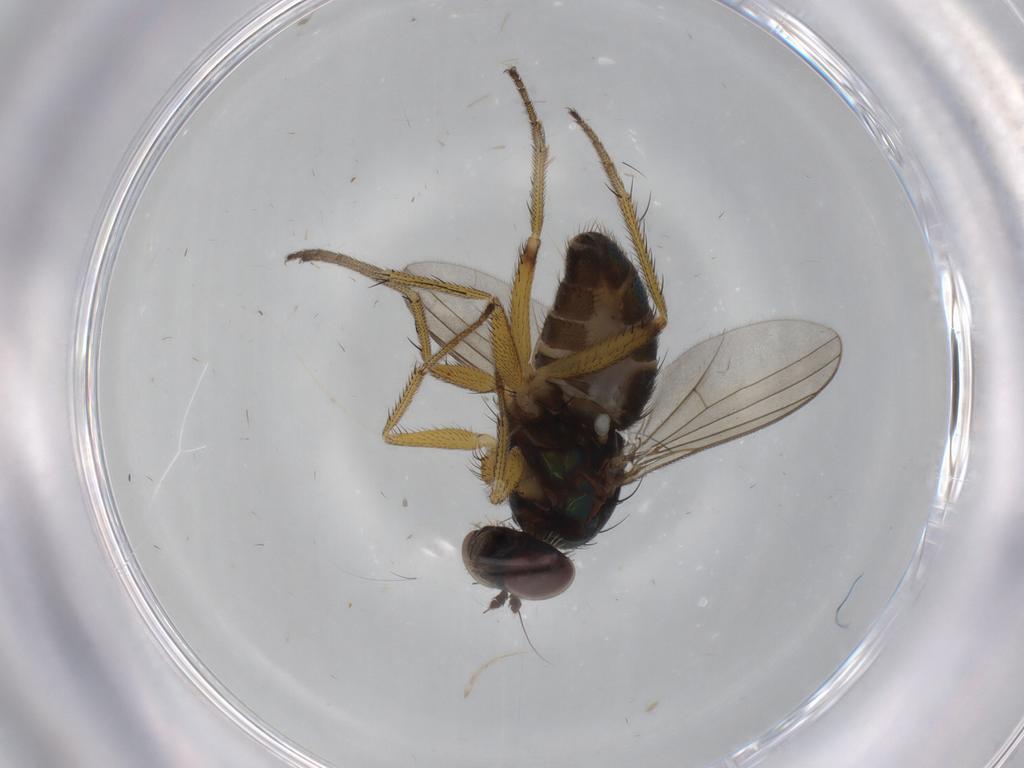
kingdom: Animalia
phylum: Arthropoda
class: Insecta
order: Diptera
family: Dolichopodidae
